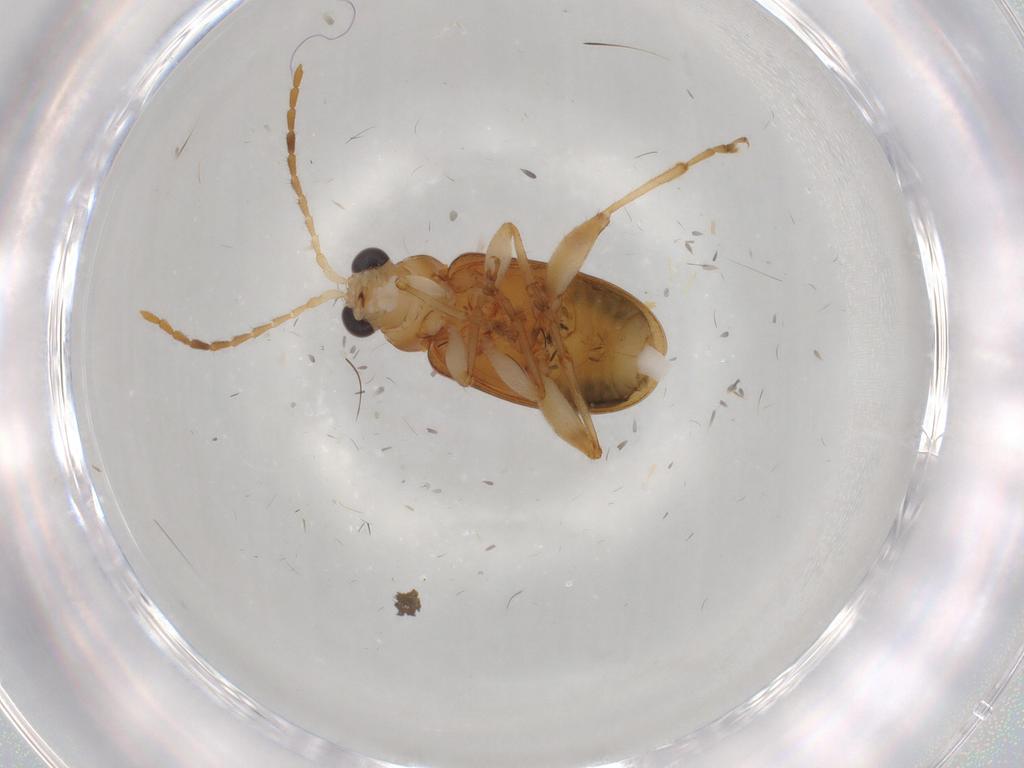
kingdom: Animalia
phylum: Arthropoda
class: Insecta
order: Coleoptera
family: Chrysomelidae
